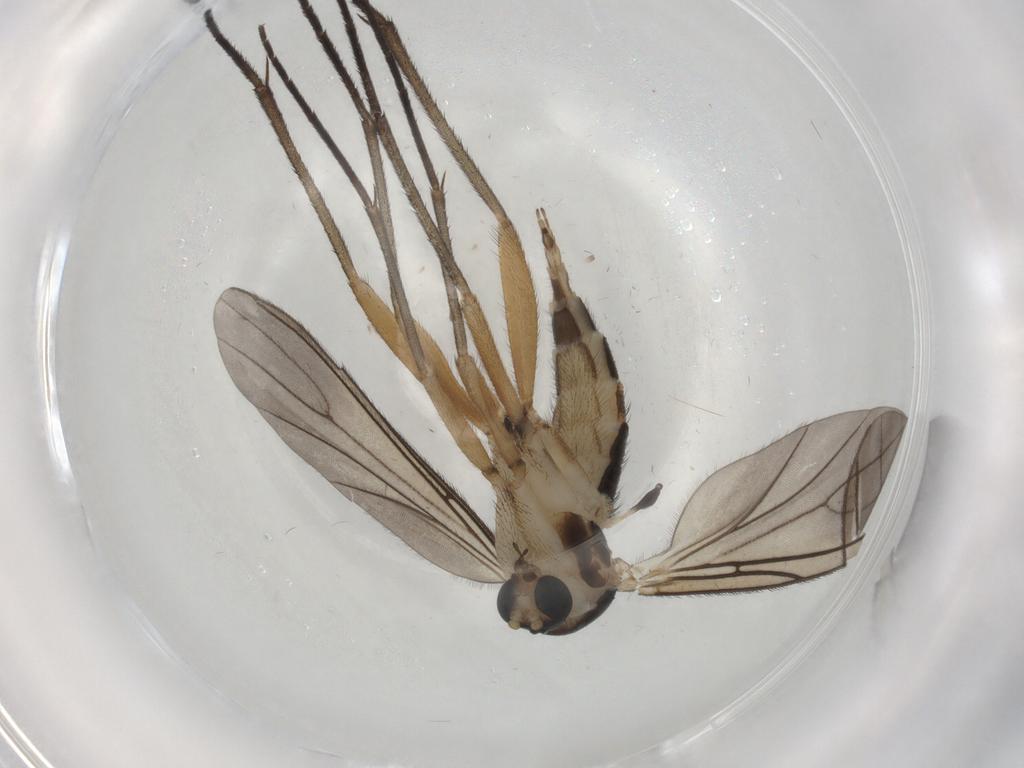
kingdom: Animalia
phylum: Arthropoda
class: Insecta
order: Diptera
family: Sciaridae
